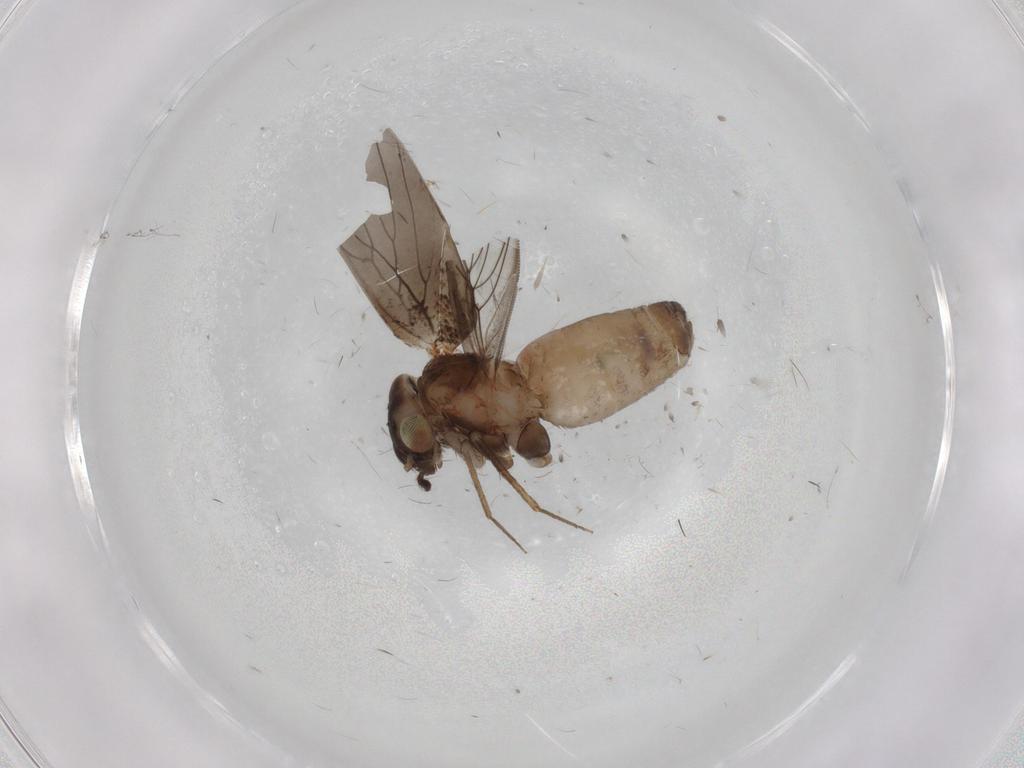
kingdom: Animalia
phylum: Arthropoda
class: Insecta
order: Psocodea
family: Lepidopsocidae
